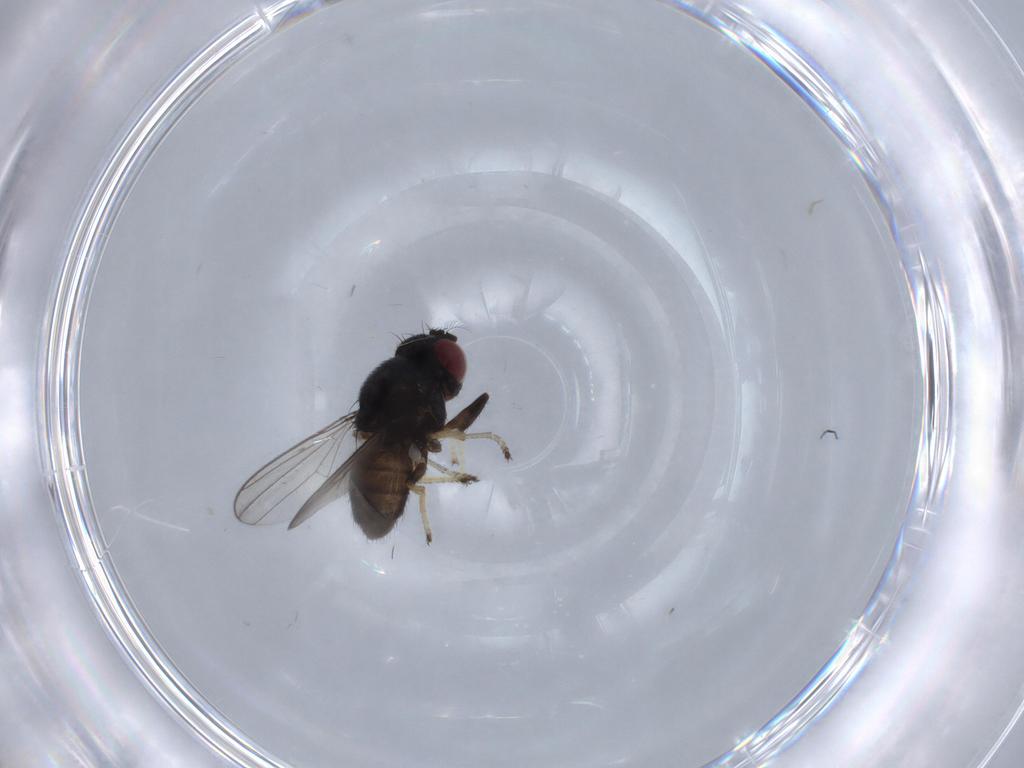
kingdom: Animalia
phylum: Arthropoda
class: Insecta
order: Diptera
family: Ephydridae
